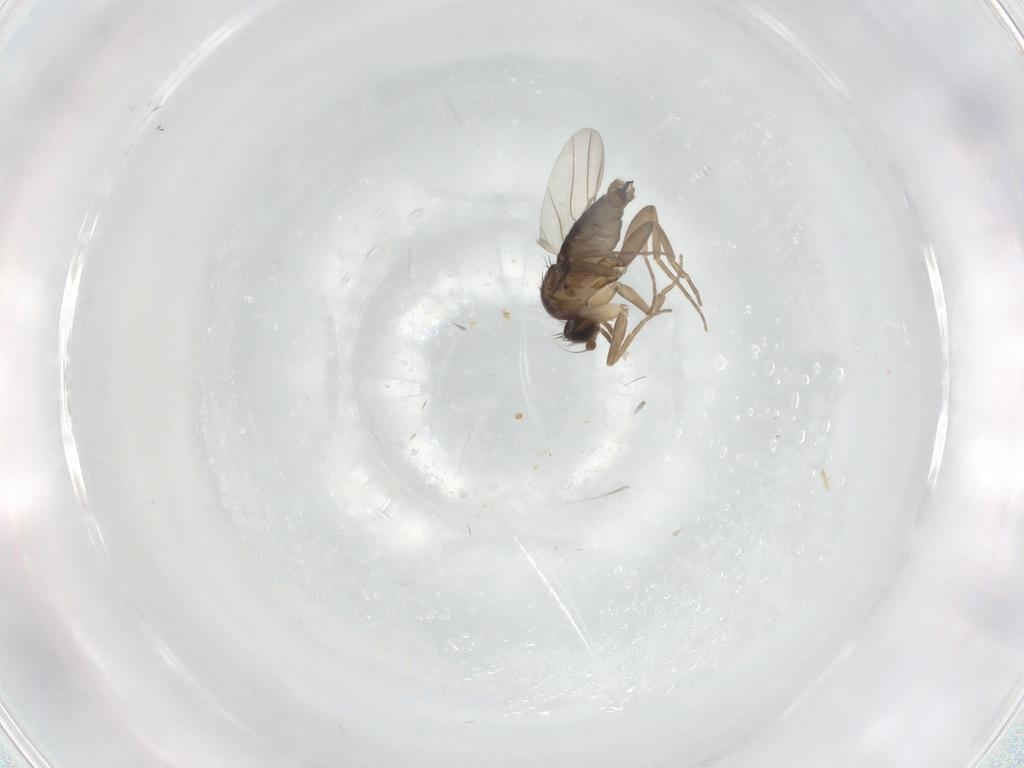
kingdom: Animalia
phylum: Arthropoda
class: Insecta
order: Diptera
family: Phoridae
